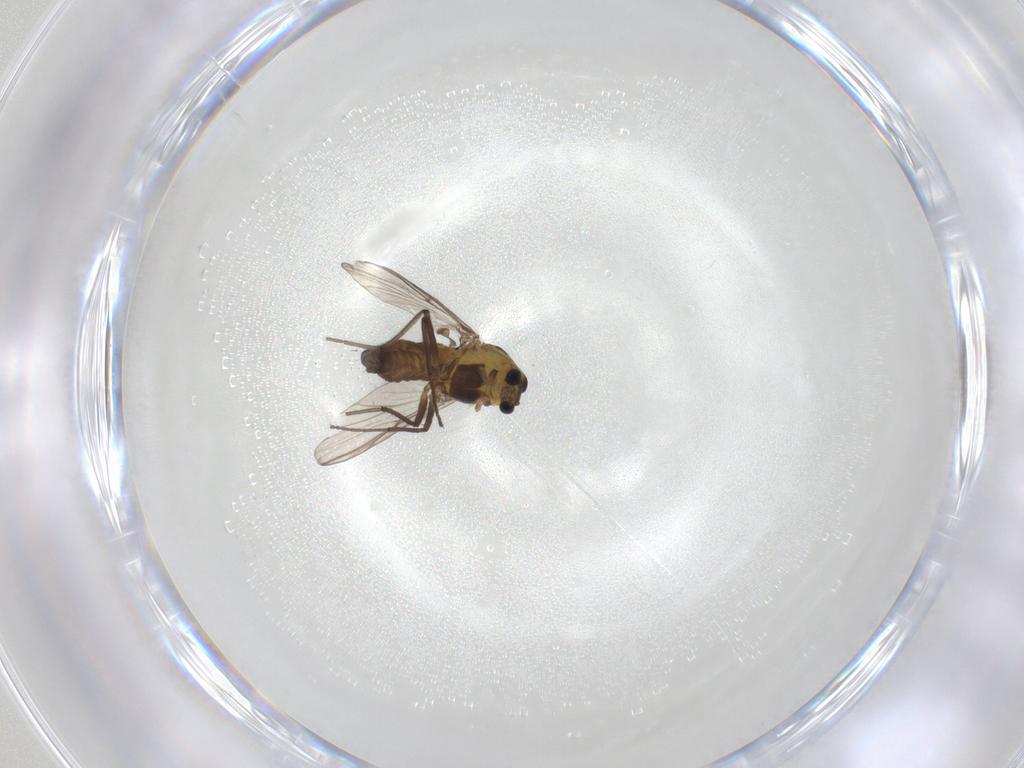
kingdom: Animalia
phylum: Arthropoda
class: Insecta
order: Diptera
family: Chironomidae
